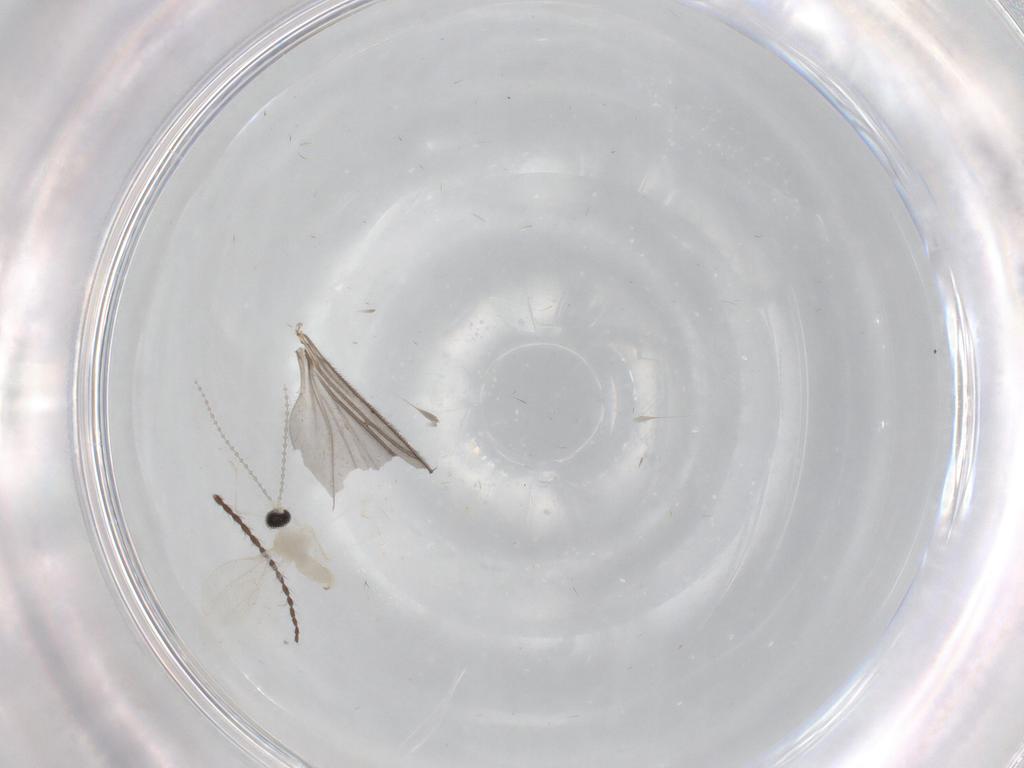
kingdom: Animalia
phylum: Arthropoda
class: Insecta
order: Diptera
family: Cecidomyiidae
